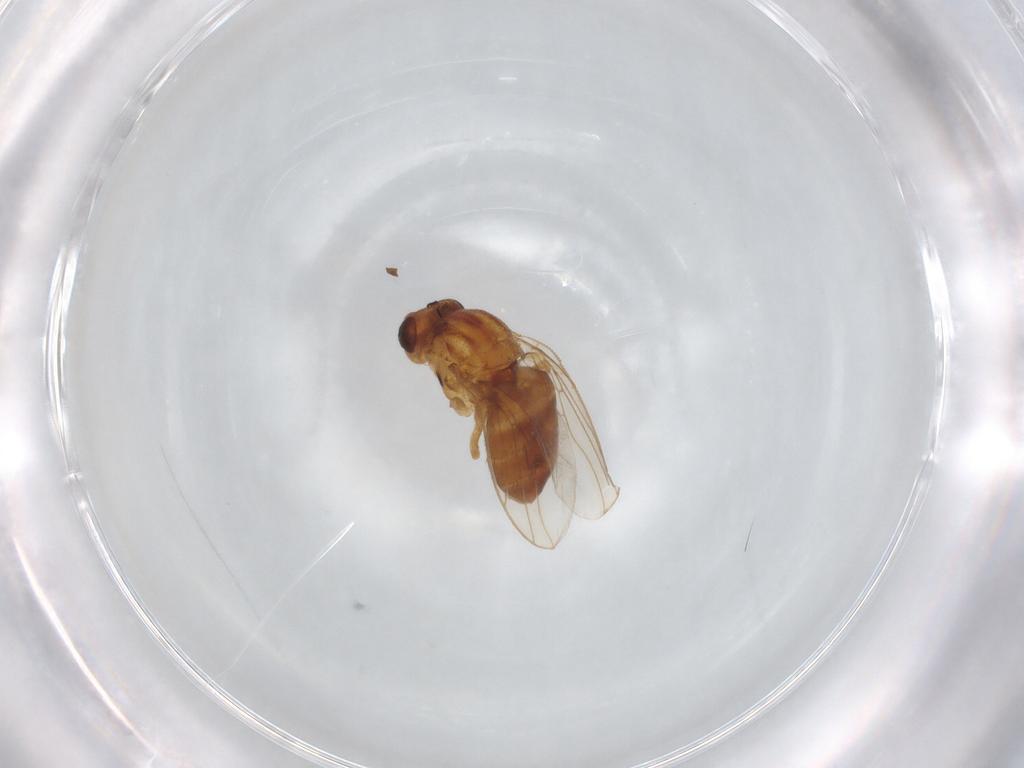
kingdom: Animalia
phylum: Arthropoda
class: Insecta
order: Diptera
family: Chloropidae
